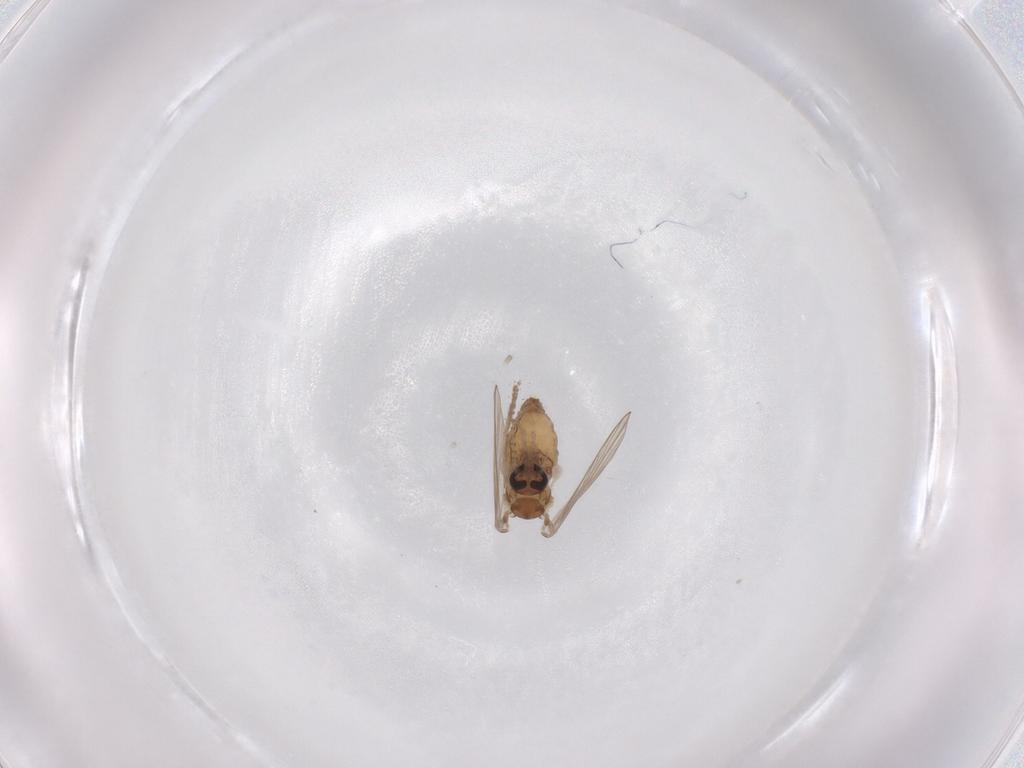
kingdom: Animalia
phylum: Arthropoda
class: Insecta
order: Diptera
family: Psychodidae
